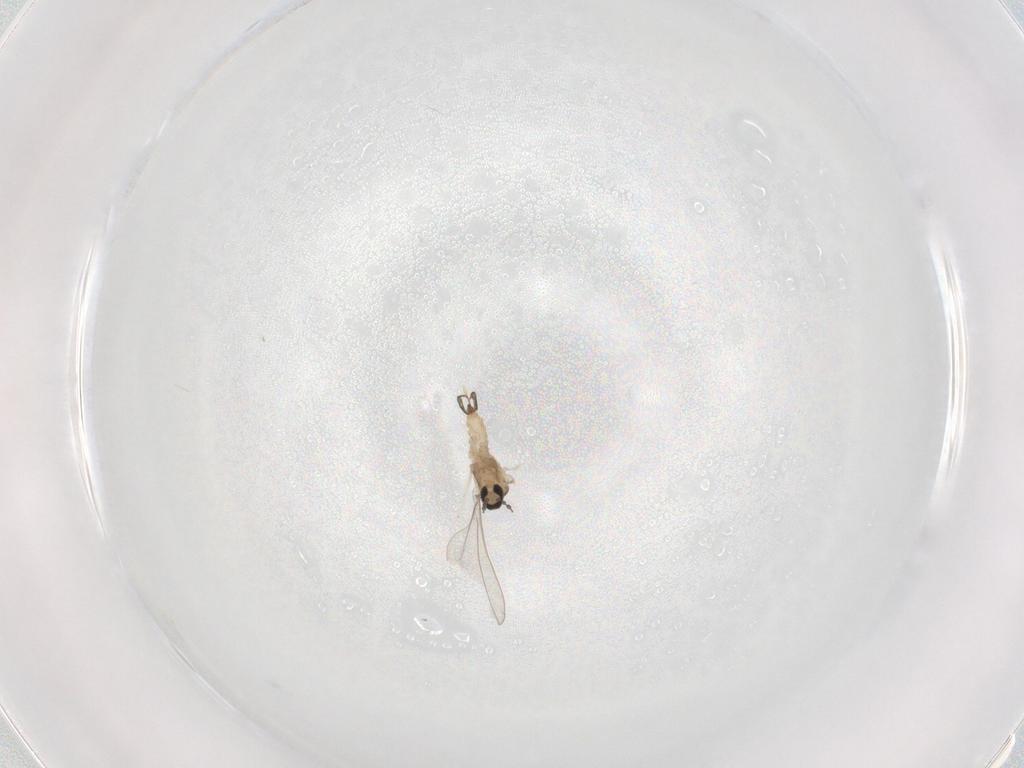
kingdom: Animalia
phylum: Arthropoda
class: Insecta
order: Diptera
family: Cecidomyiidae
